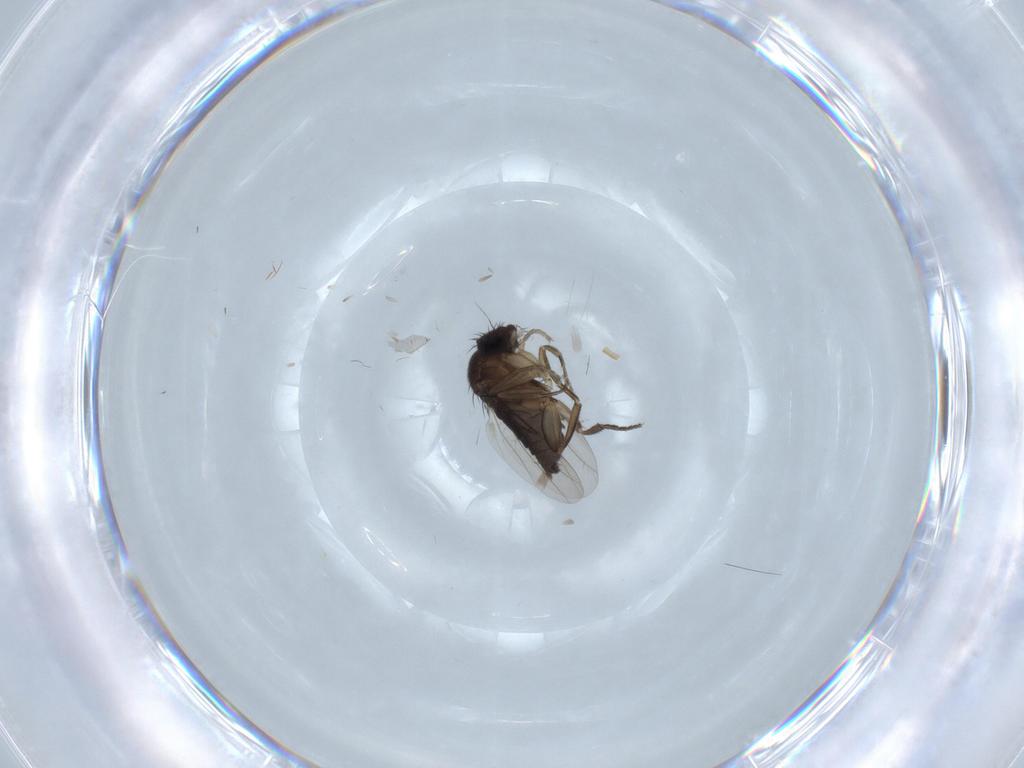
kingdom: Animalia
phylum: Arthropoda
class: Insecta
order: Diptera
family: Phoridae
